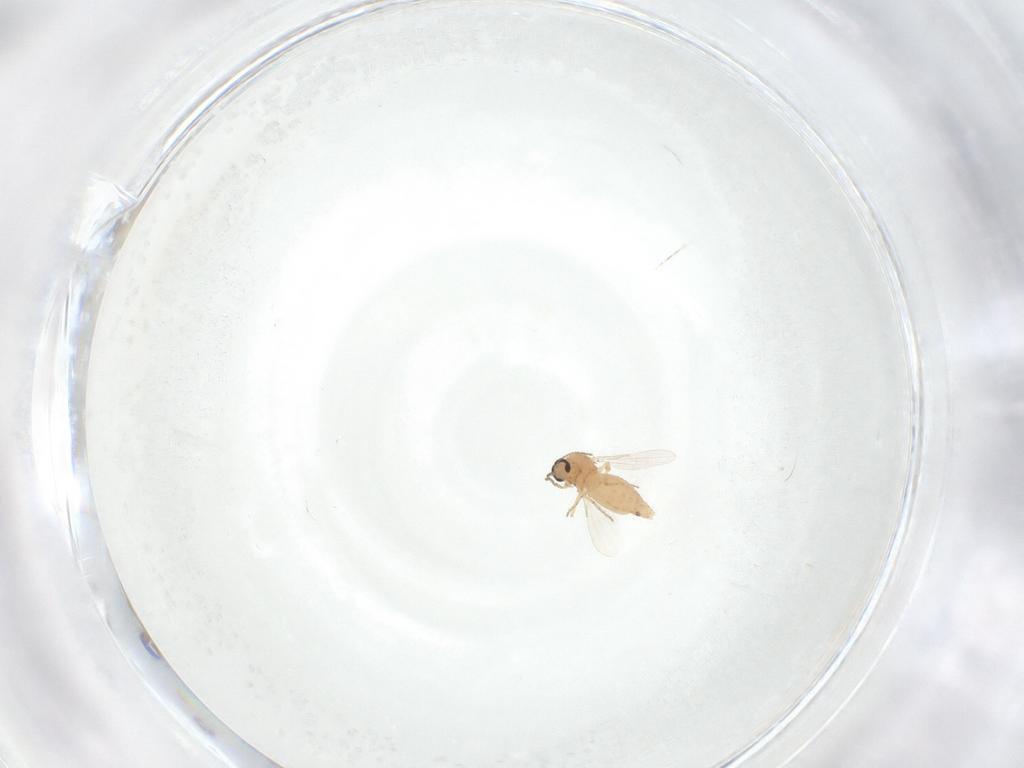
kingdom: Animalia
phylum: Arthropoda
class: Insecta
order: Diptera
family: Ceratopogonidae
